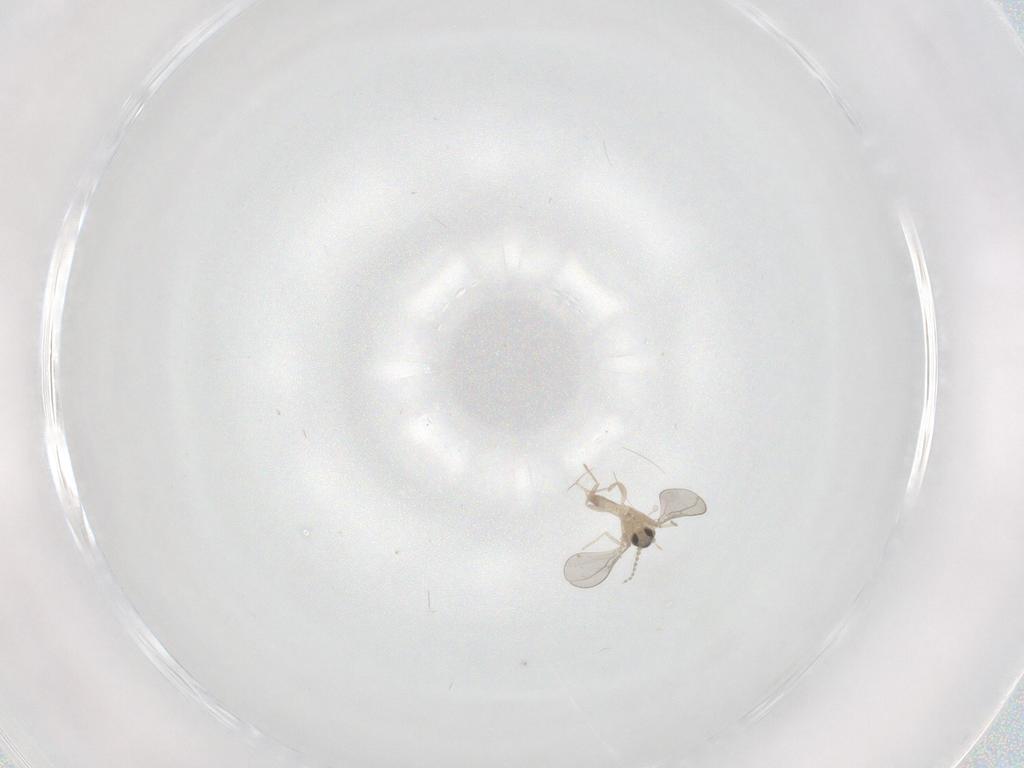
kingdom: Animalia
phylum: Arthropoda
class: Insecta
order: Diptera
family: Cecidomyiidae
